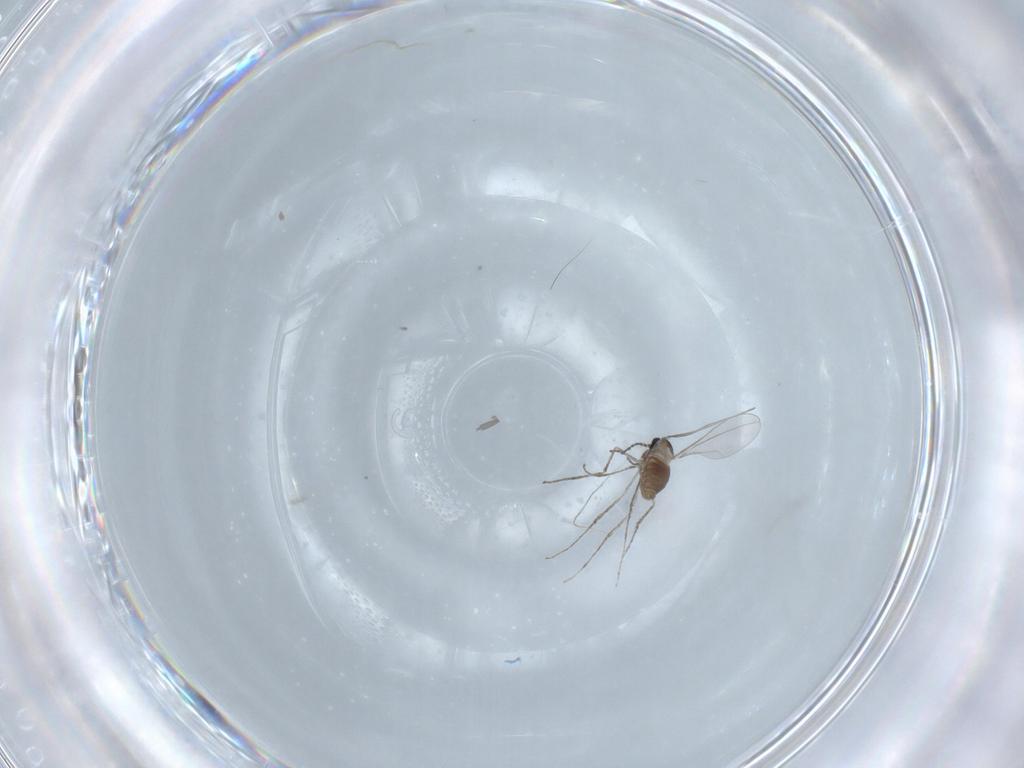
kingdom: Animalia
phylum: Arthropoda
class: Insecta
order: Diptera
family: Cecidomyiidae
